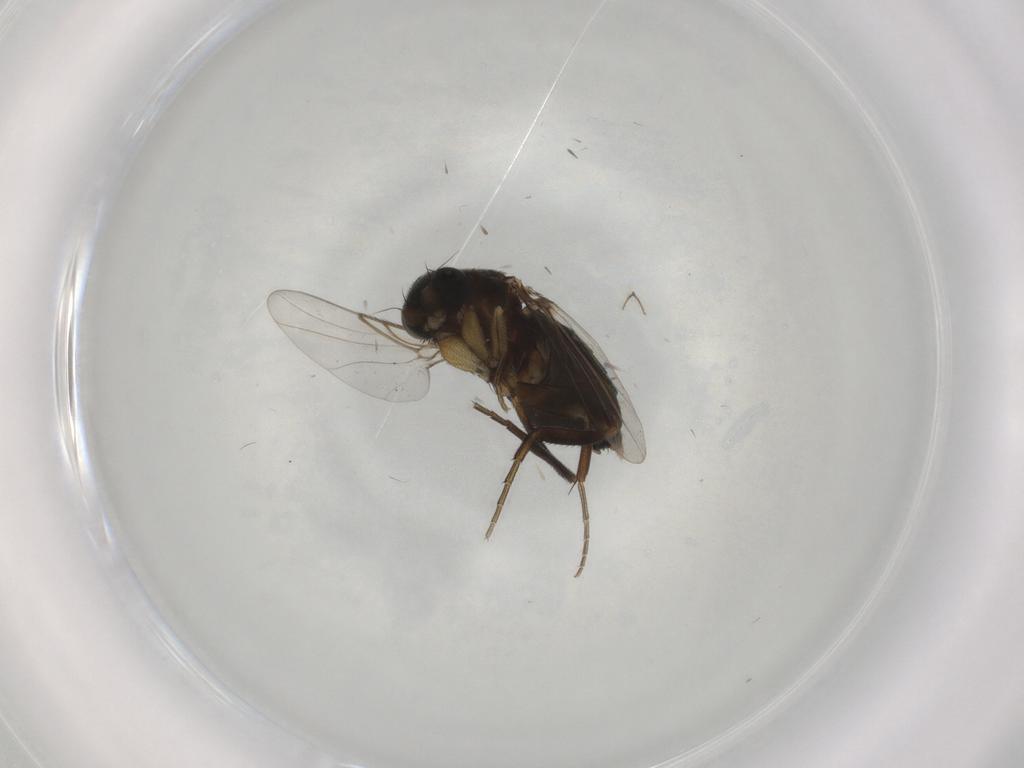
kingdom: Animalia
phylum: Arthropoda
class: Insecta
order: Diptera
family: Phoridae
